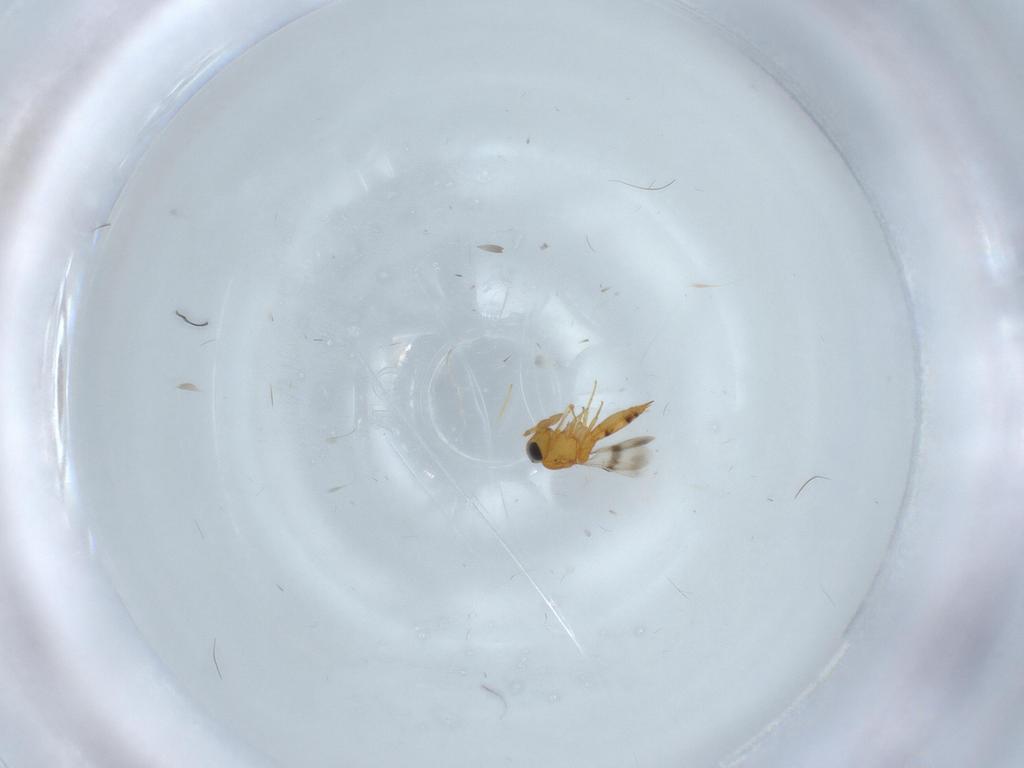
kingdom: Animalia
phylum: Arthropoda
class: Insecta
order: Hymenoptera
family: Scelionidae
